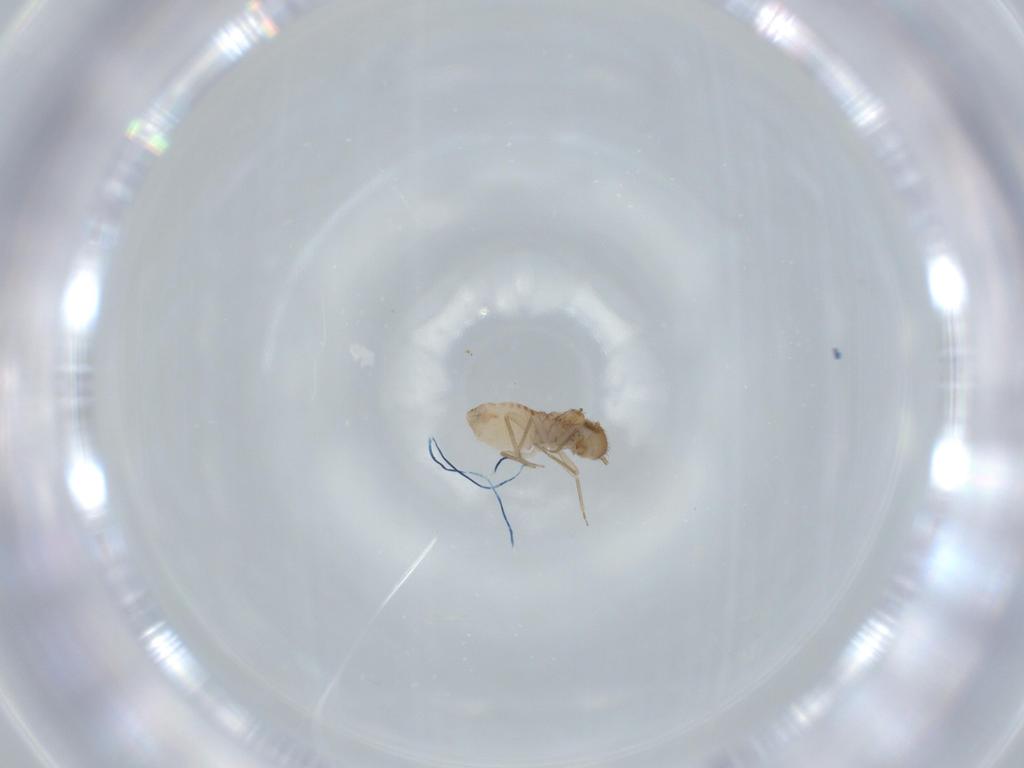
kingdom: Animalia
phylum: Arthropoda
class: Insecta
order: Psocodea
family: Ectopsocidae
